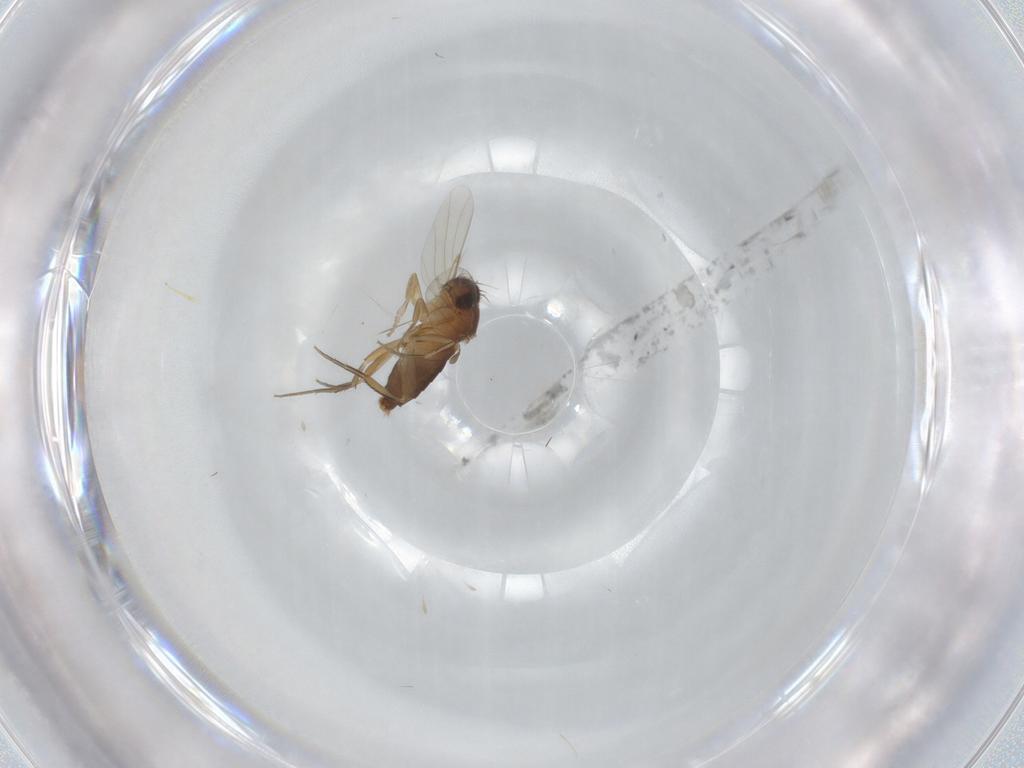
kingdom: Animalia
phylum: Arthropoda
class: Insecta
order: Diptera
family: Phoridae
